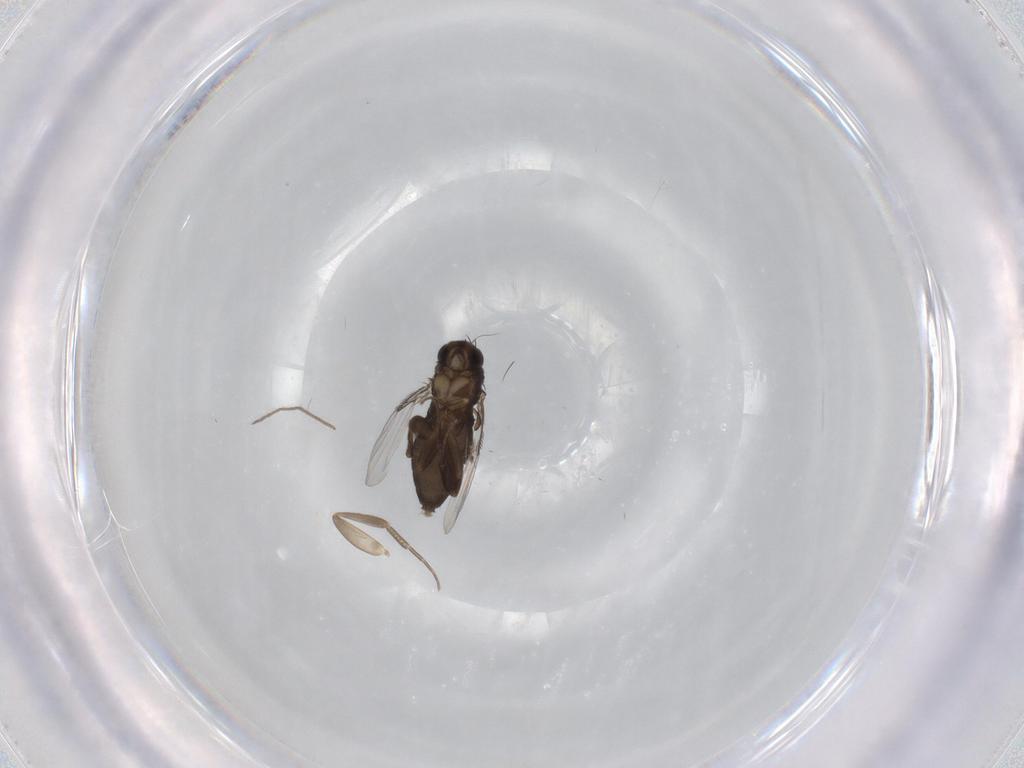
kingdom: Animalia
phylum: Arthropoda
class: Insecta
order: Diptera
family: Phoridae
